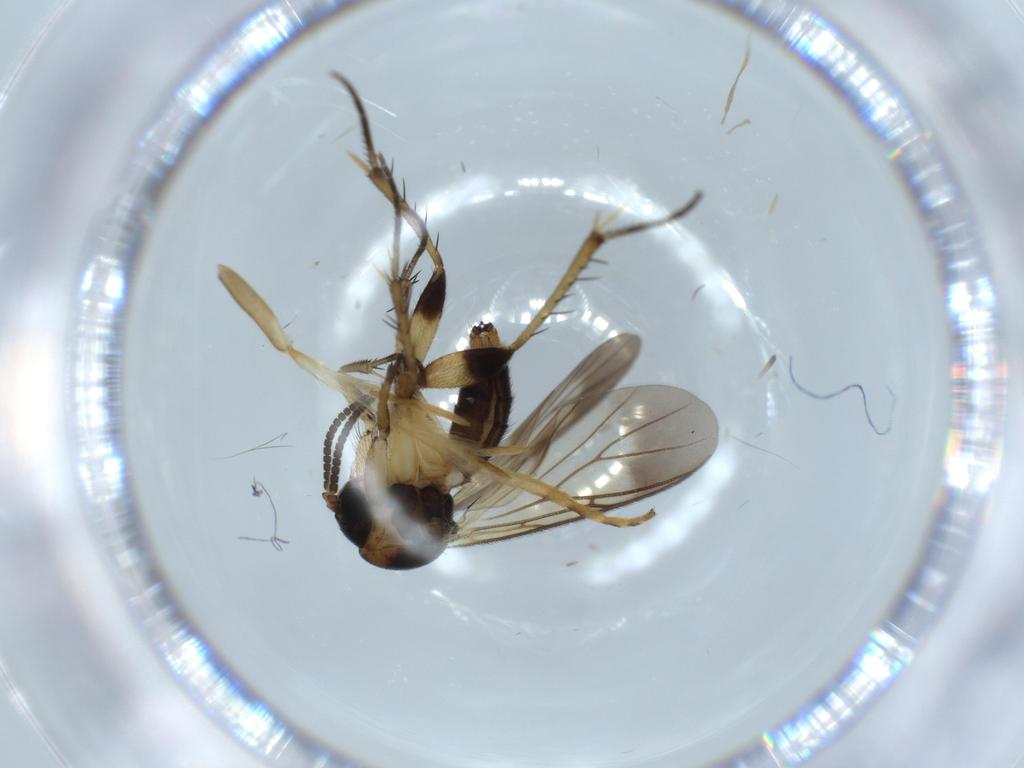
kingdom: Animalia
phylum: Arthropoda
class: Insecta
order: Diptera
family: Mycetophilidae
